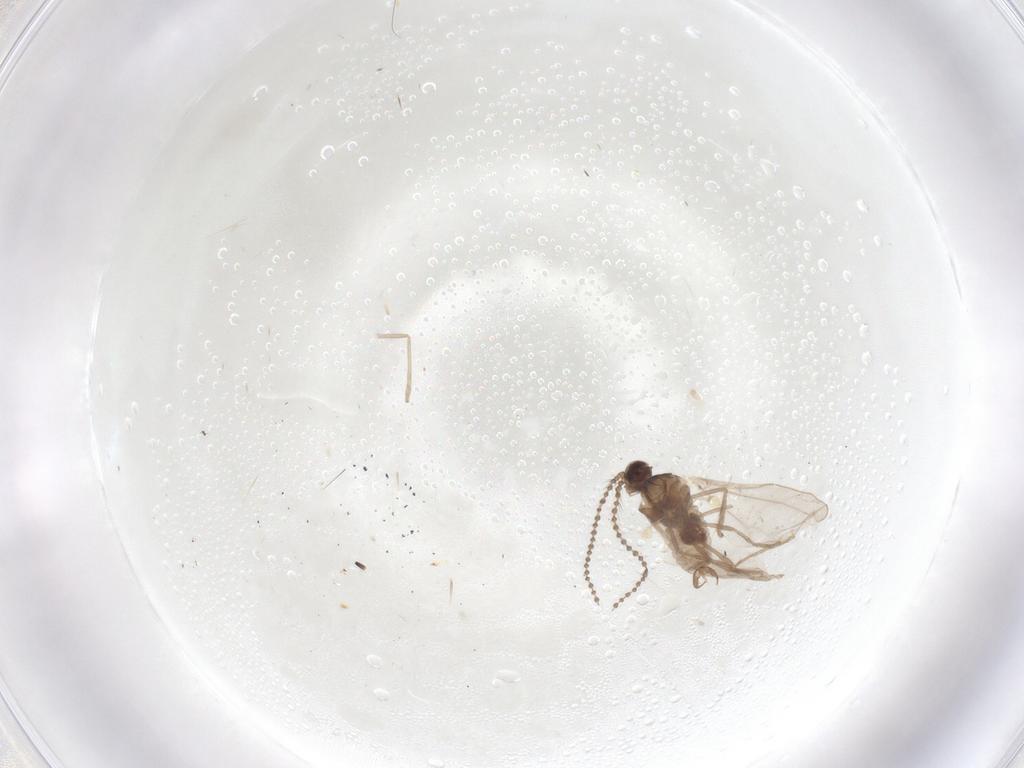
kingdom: Animalia
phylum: Arthropoda
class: Insecta
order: Diptera
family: Cecidomyiidae
